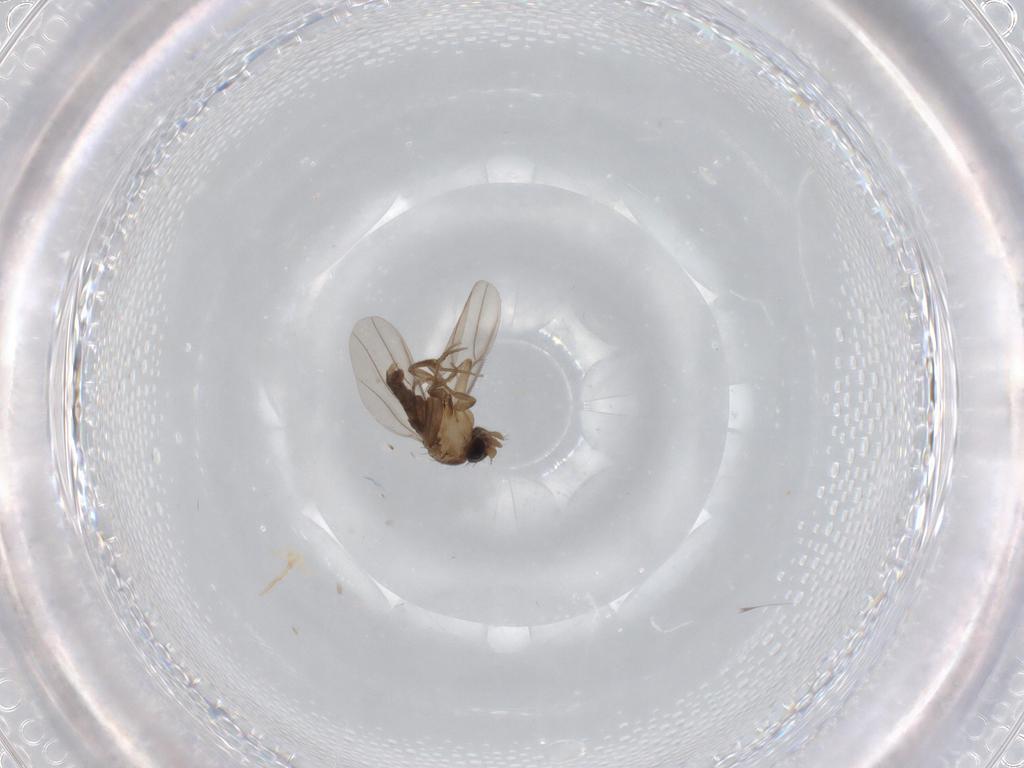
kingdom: Animalia
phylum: Arthropoda
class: Insecta
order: Diptera
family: Phoridae
